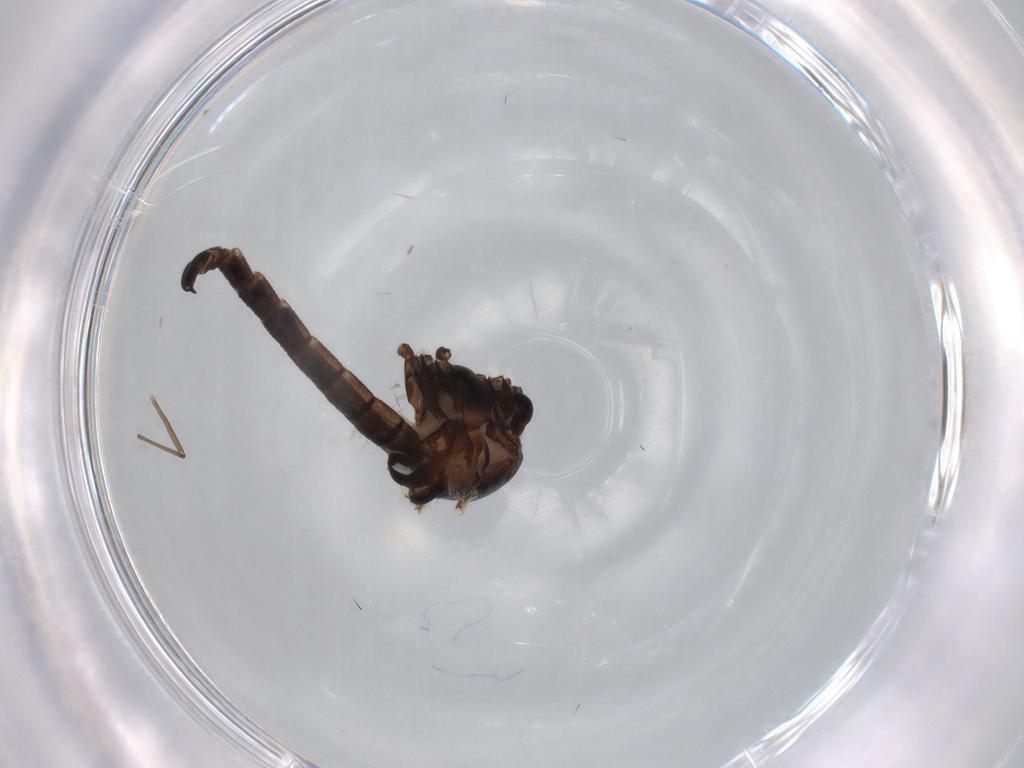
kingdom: Animalia
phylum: Arthropoda
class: Insecta
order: Diptera
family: Chironomidae
